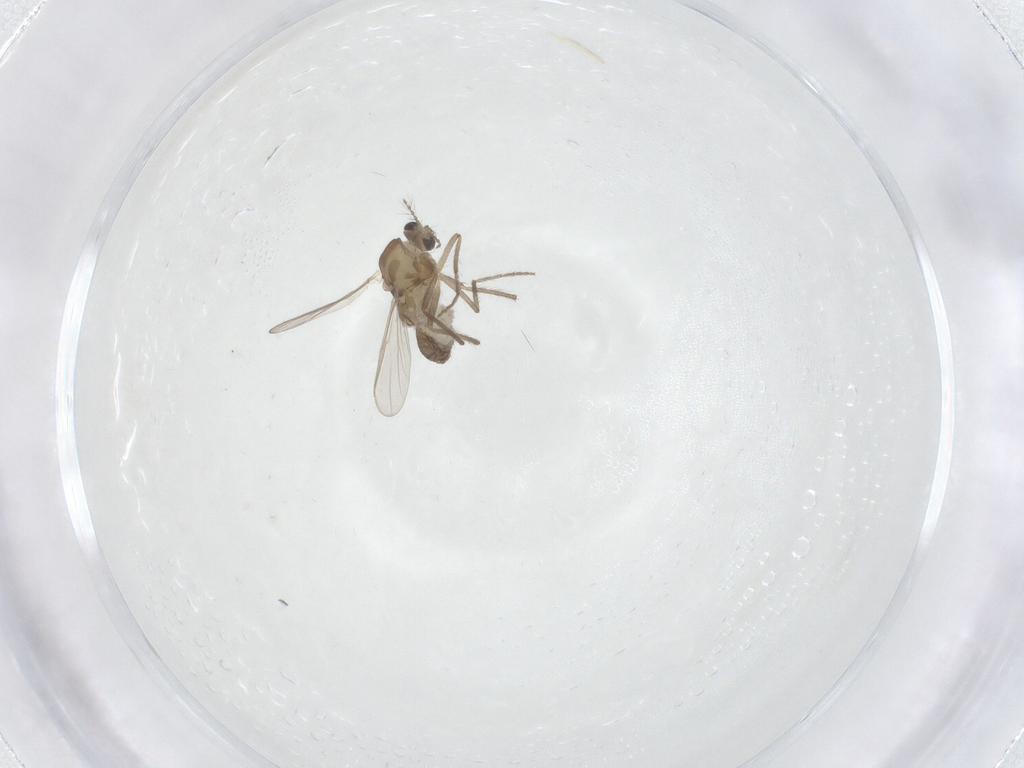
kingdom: Animalia
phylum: Arthropoda
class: Insecta
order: Diptera
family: Chironomidae
